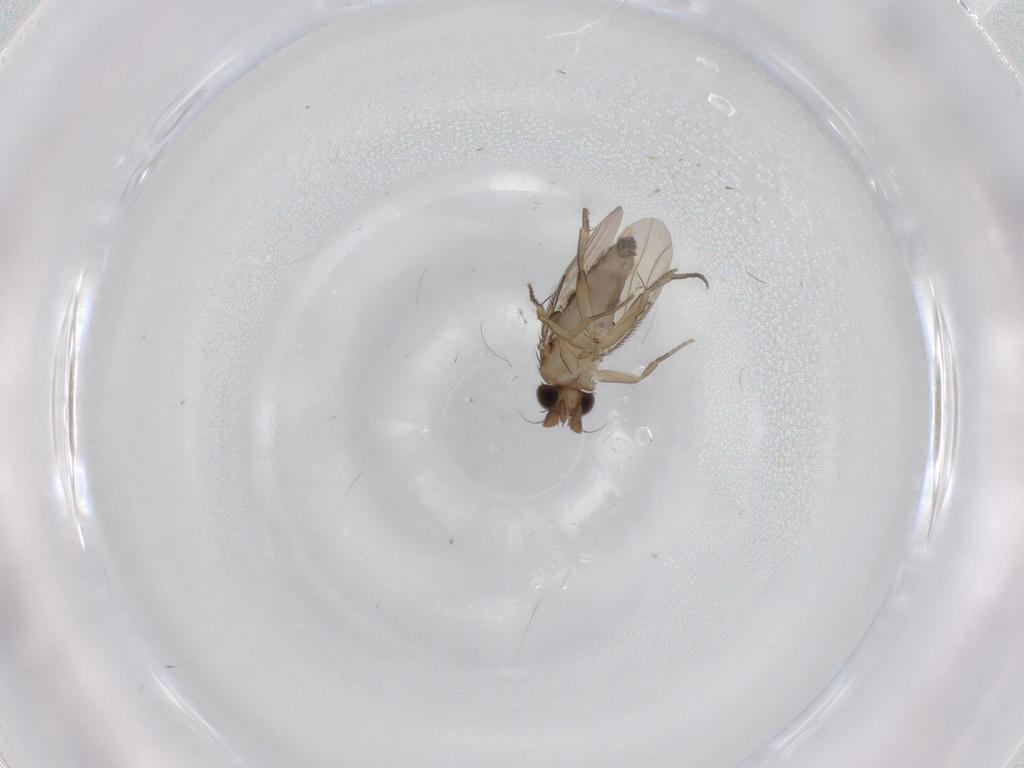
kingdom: Animalia
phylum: Arthropoda
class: Insecta
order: Diptera
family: Phoridae
